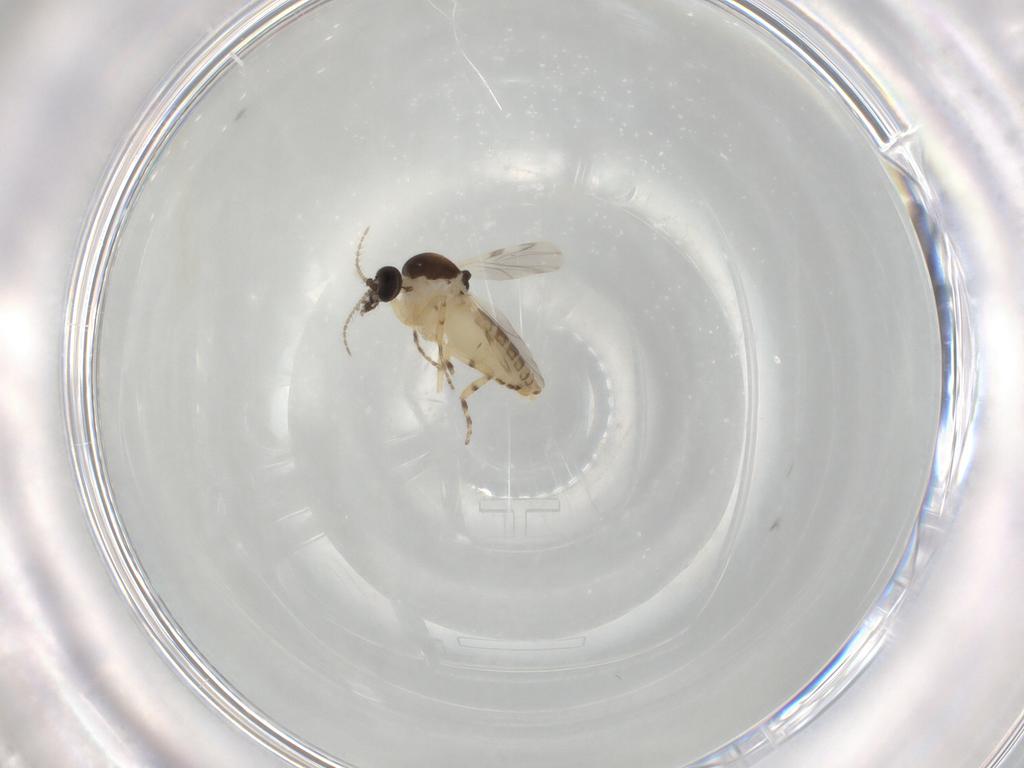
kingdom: Animalia
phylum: Arthropoda
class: Insecta
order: Diptera
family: Ceratopogonidae
